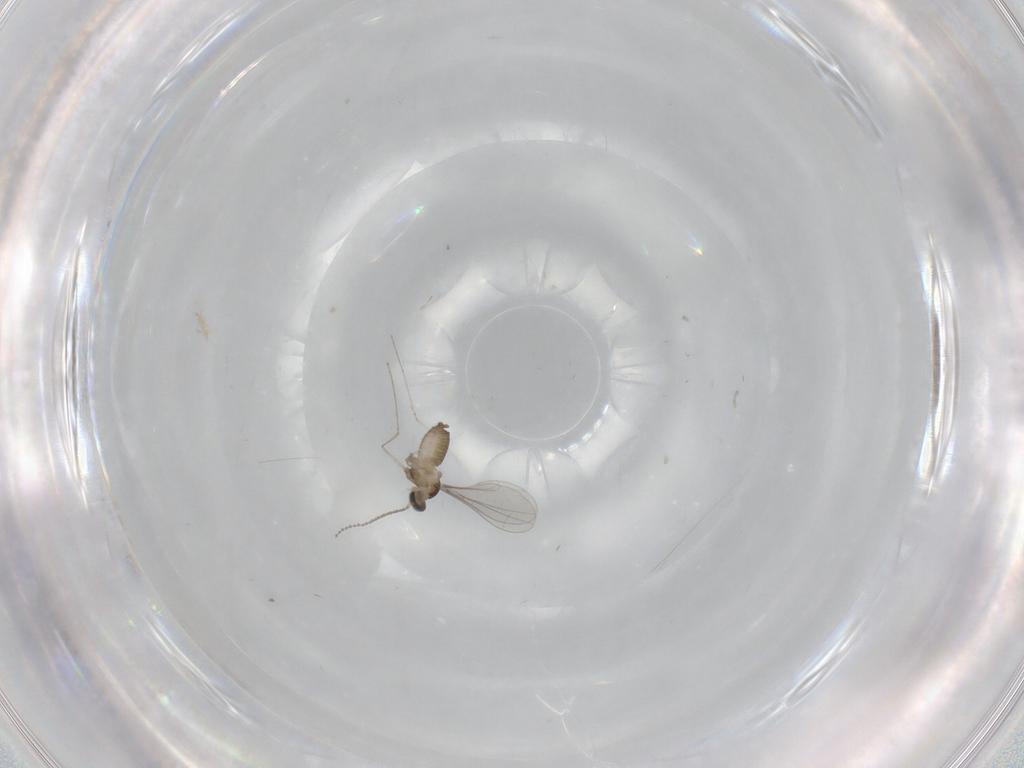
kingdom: Animalia
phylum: Arthropoda
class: Insecta
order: Diptera
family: Cecidomyiidae
